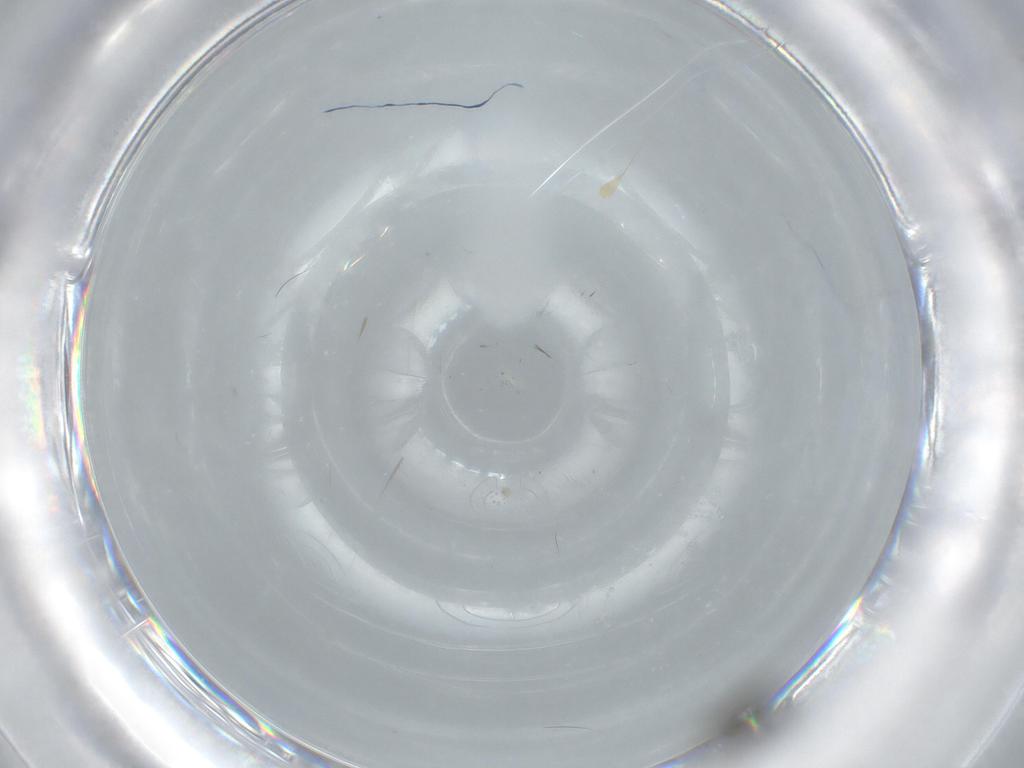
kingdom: Animalia
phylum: Arthropoda
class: Insecta
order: Diptera
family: Phoridae
